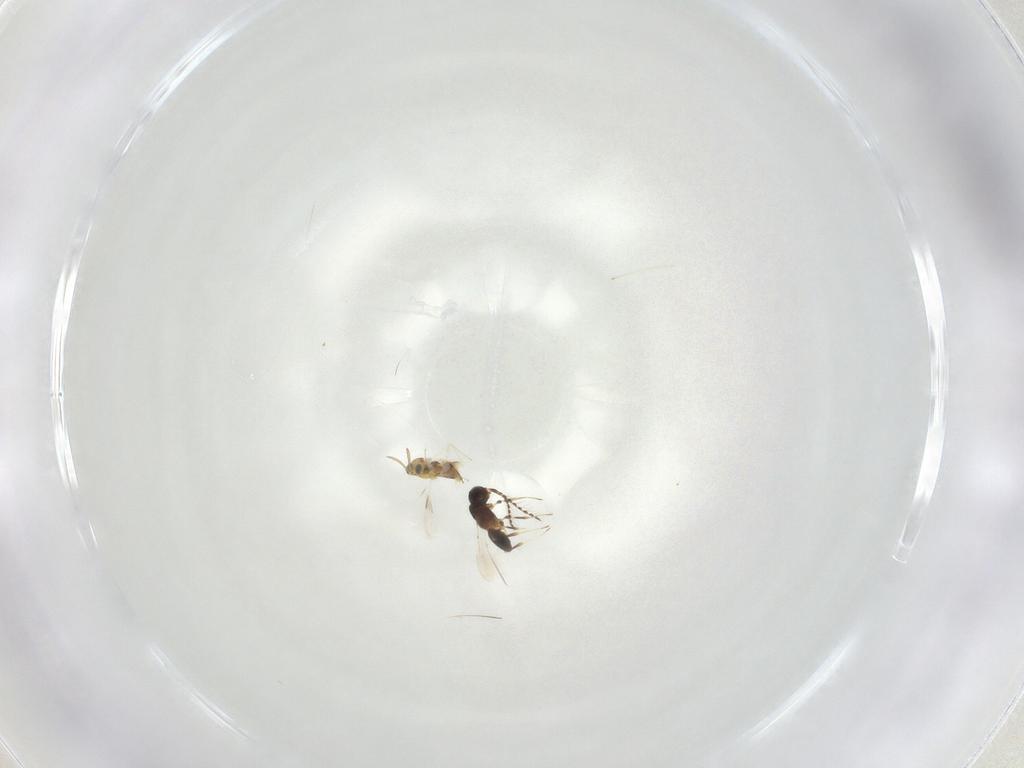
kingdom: Animalia
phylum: Arthropoda
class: Insecta
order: Hymenoptera
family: Platygastridae
